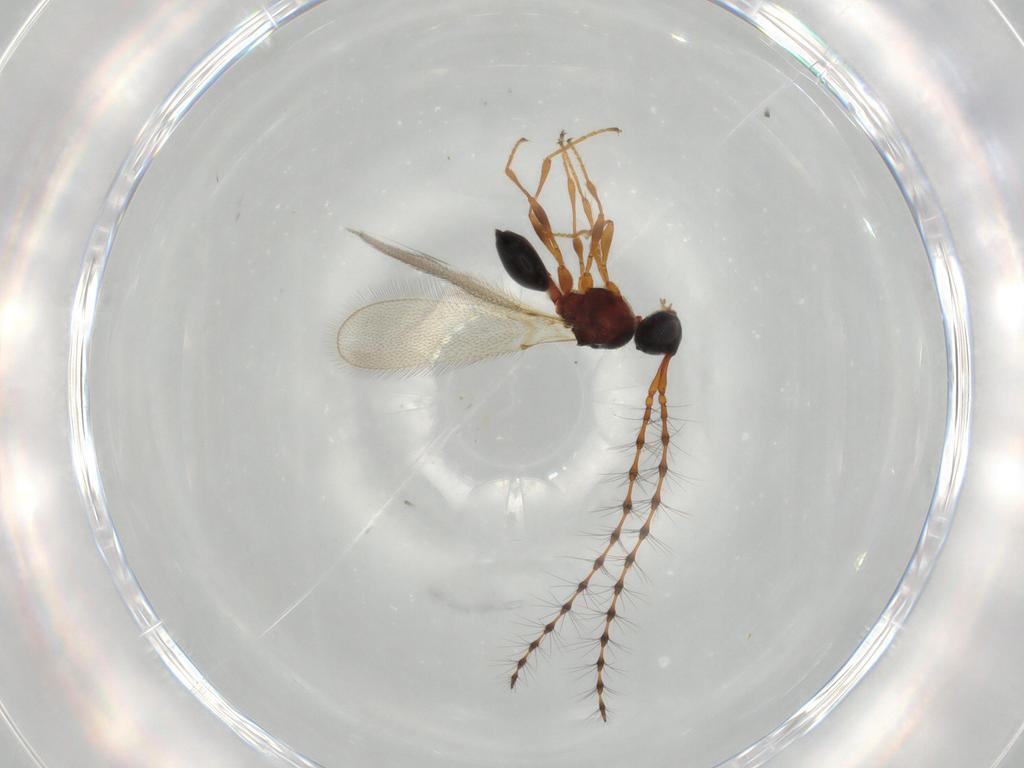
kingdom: Animalia
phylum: Arthropoda
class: Insecta
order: Hymenoptera
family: Diapriidae
